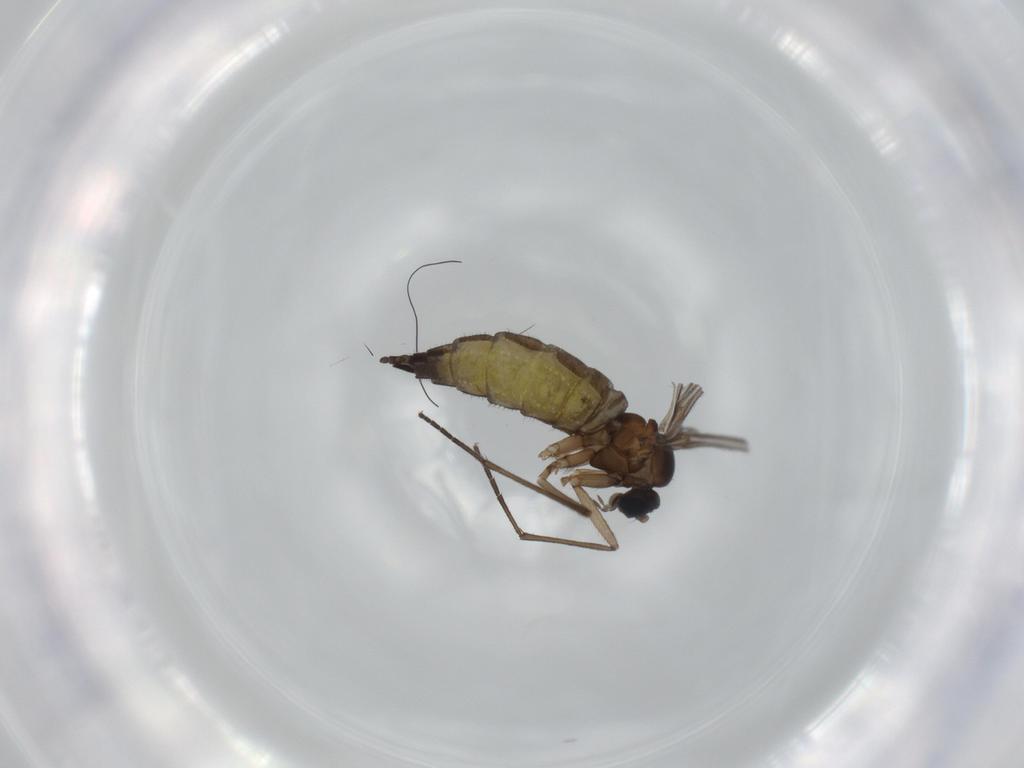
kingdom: Animalia
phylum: Arthropoda
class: Insecta
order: Diptera
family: Sciaridae
